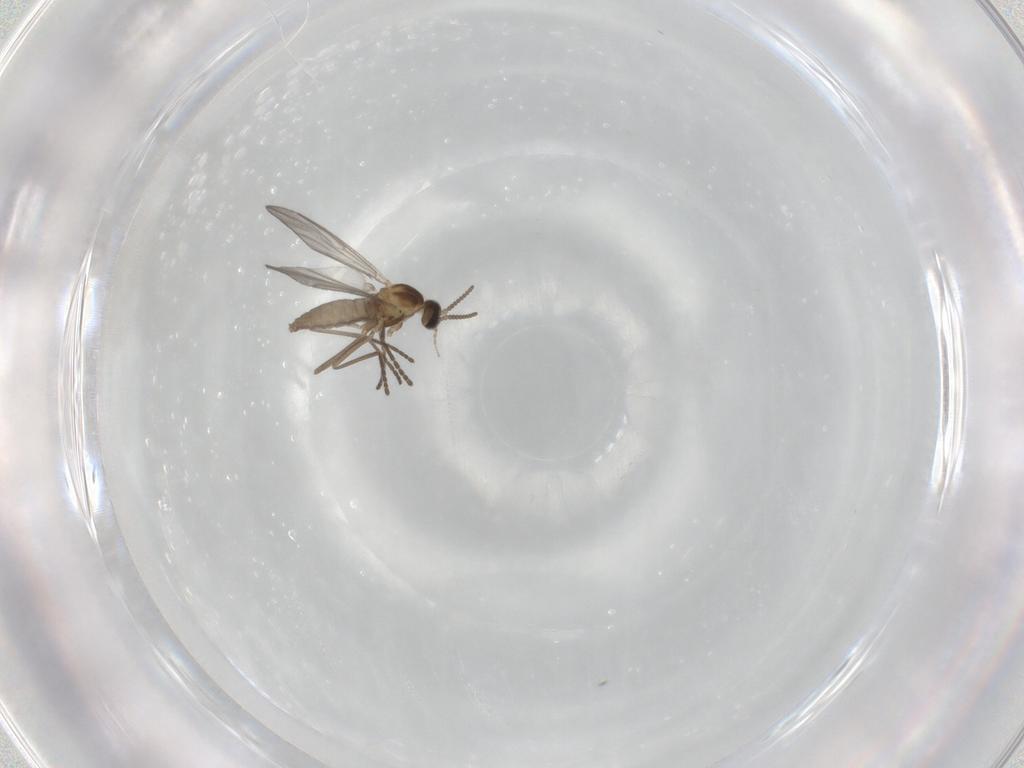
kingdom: Animalia
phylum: Arthropoda
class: Insecta
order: Diptera
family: Cecidomyiidae
